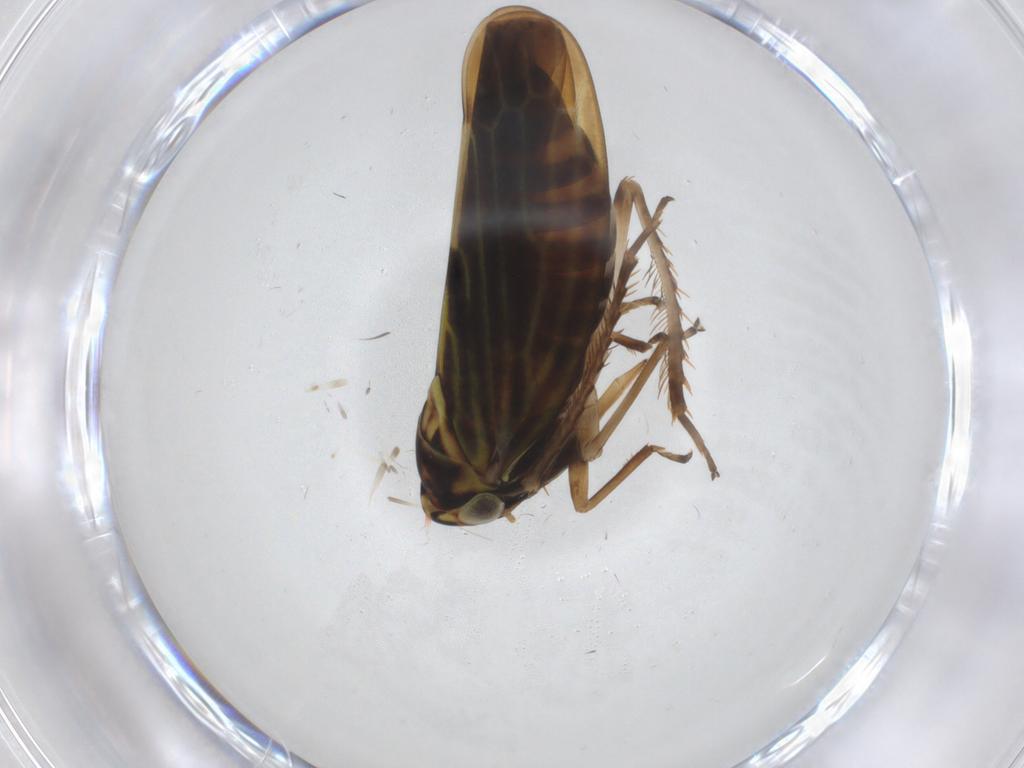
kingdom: Animalia
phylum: Arthropoda
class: Insecta
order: Hemiptera
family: Cicadellidae
